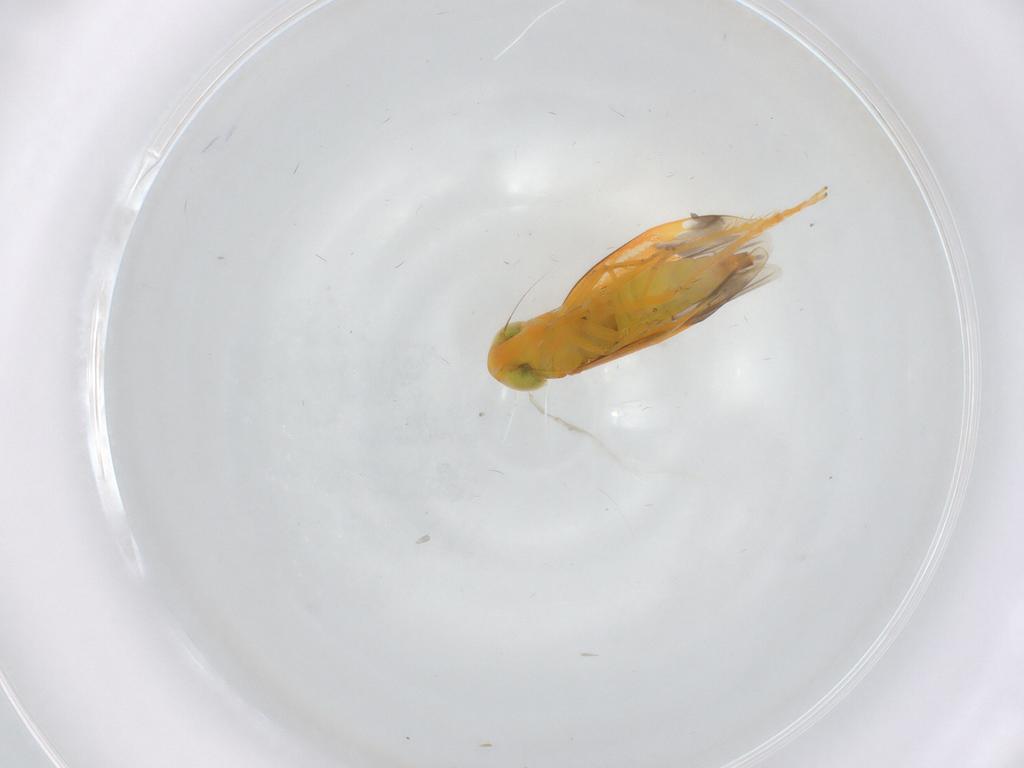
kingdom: Animalia
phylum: Arthropoda
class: Insecta
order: Hemiptera
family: Cicadellidae
